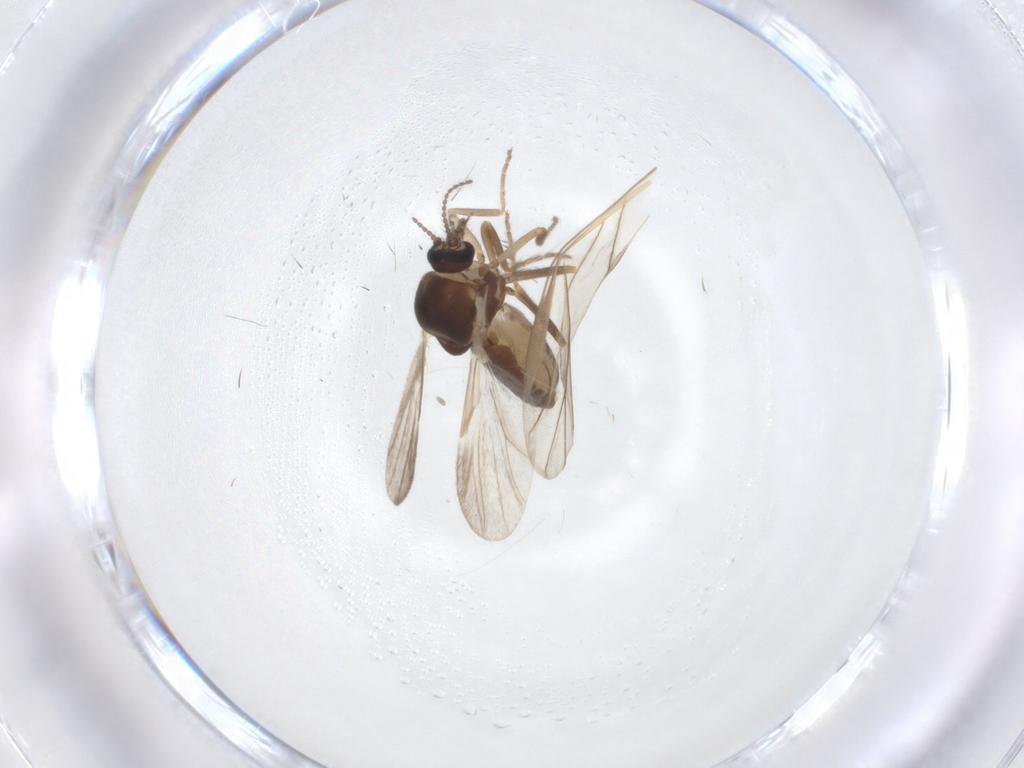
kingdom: Animalia
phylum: Arthropoda
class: Insecta
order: Diptera
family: Ceratopogonidae
